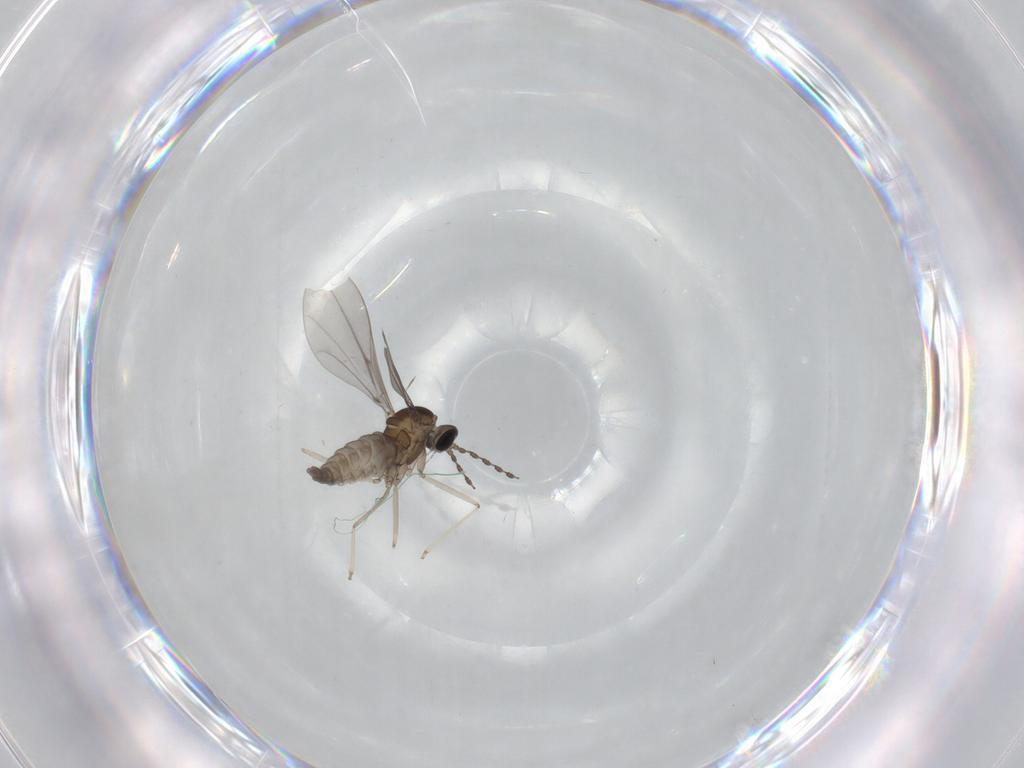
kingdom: Animalia
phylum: Arthropoda
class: Insecta
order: Diptera
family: Cecidomyiidae
